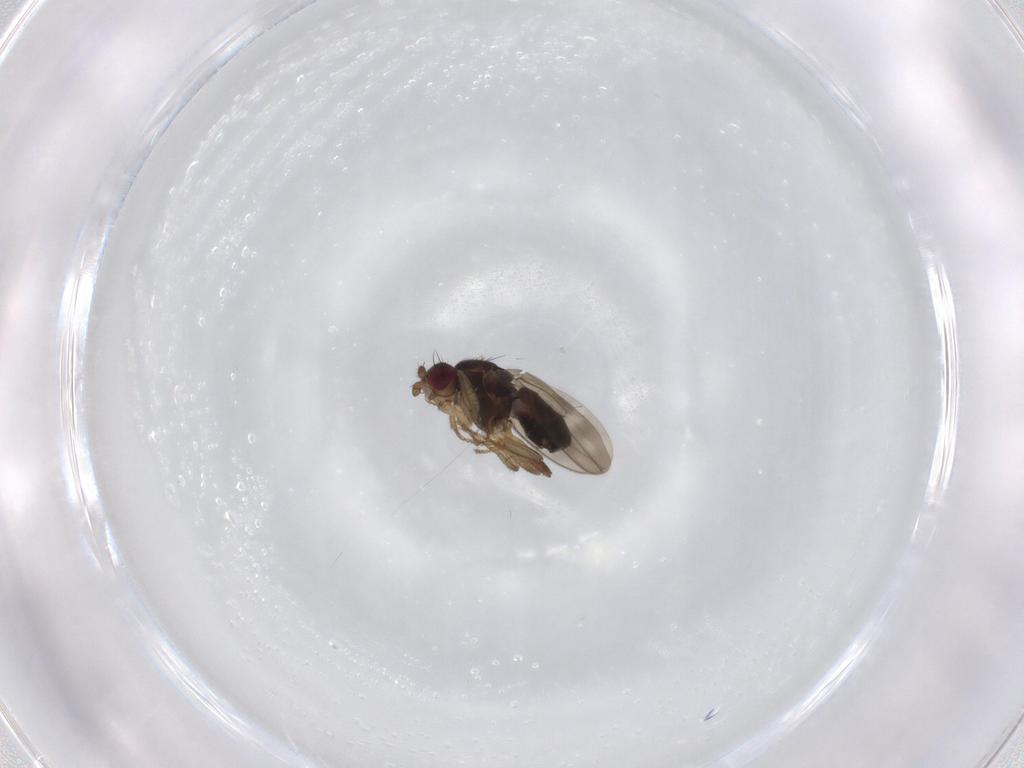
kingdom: Animalia
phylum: Arthropoda
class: Insecta
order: Diptera
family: Sphaeroceridae
